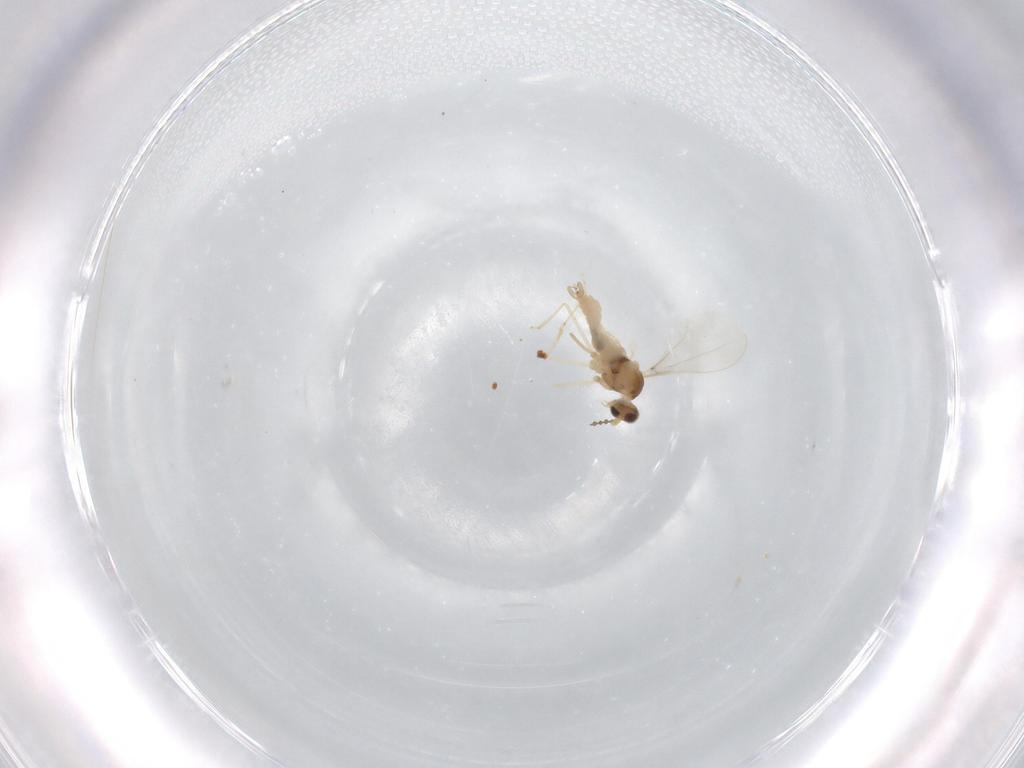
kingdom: Animalia
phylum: Arthropoda
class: Insecta
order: Diptera
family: Cecidomyiidae
